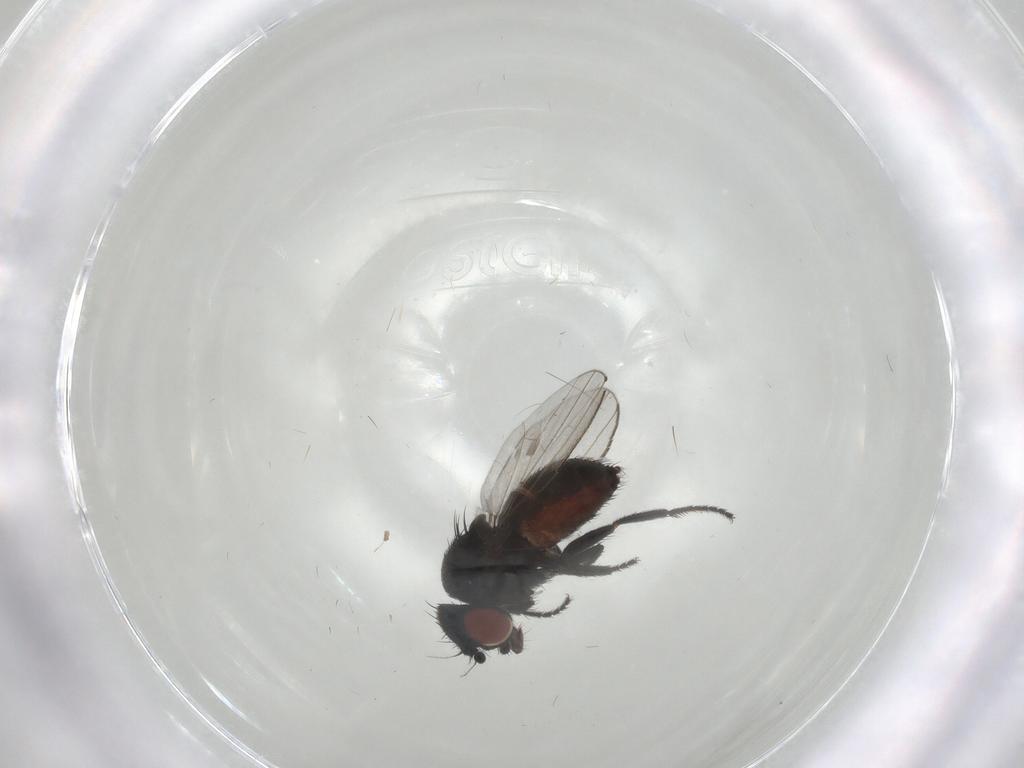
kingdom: Animalia
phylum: Arthropoda
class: Insecta
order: Diptera
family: Milichiidae
